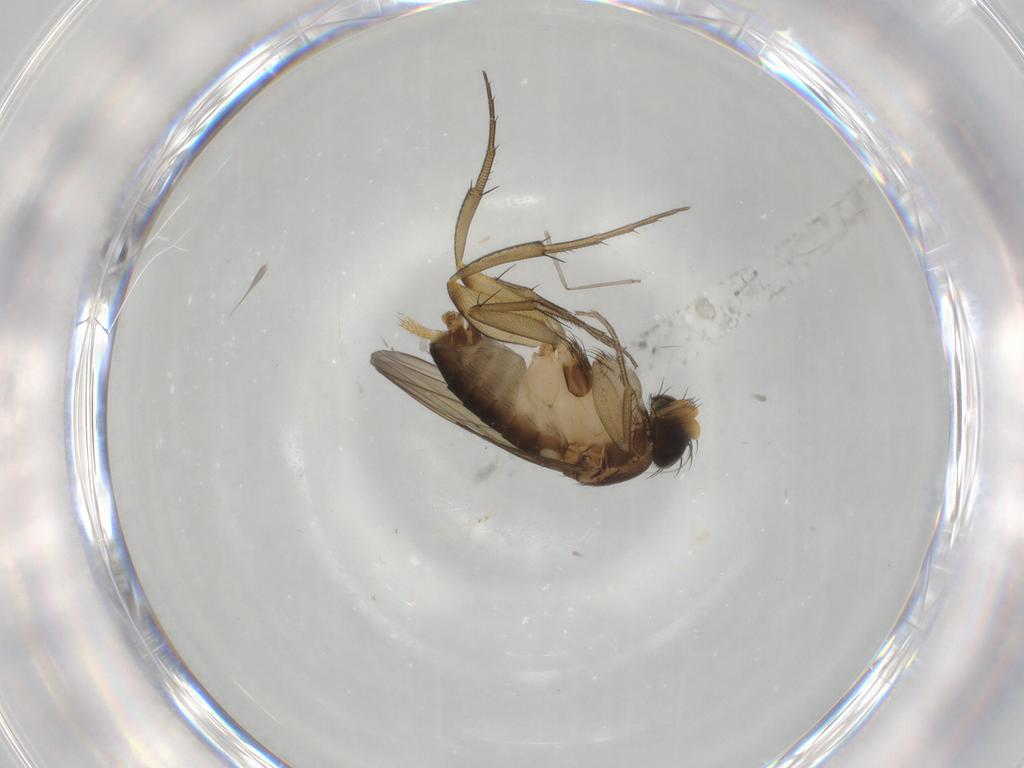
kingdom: Animalia
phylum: Arthropoda
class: Insecta
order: Diptera
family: Phoridae
